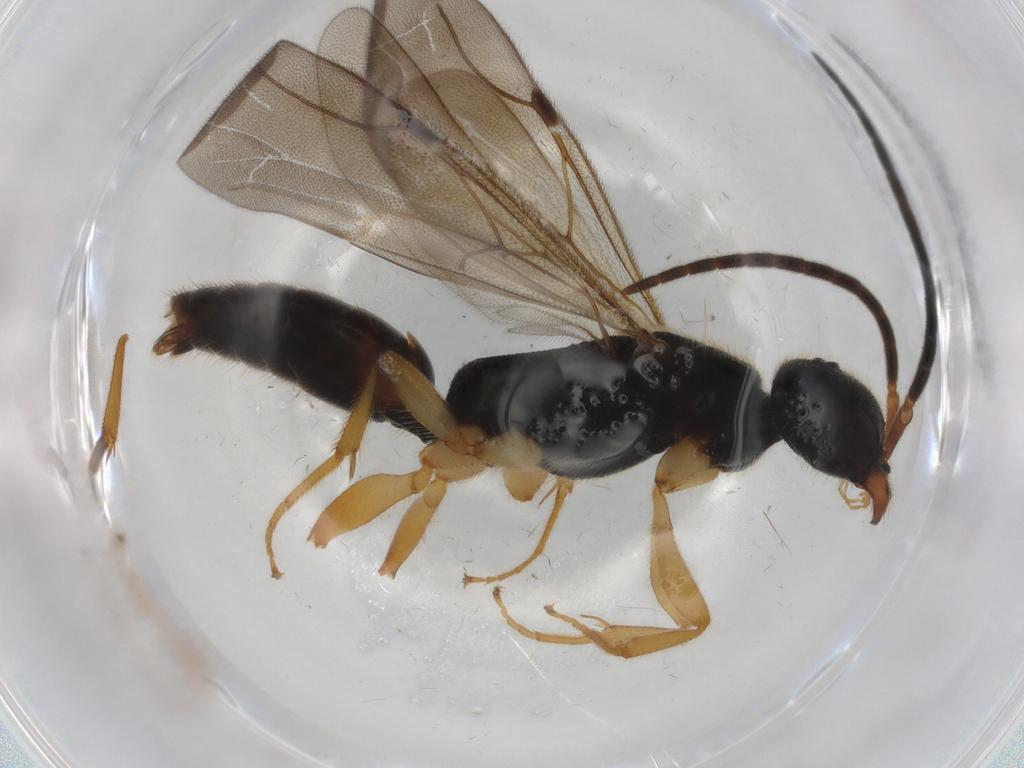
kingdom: Animalia
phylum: Arthropoda
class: Insecta
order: Hymenoptera
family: Bethylidae
